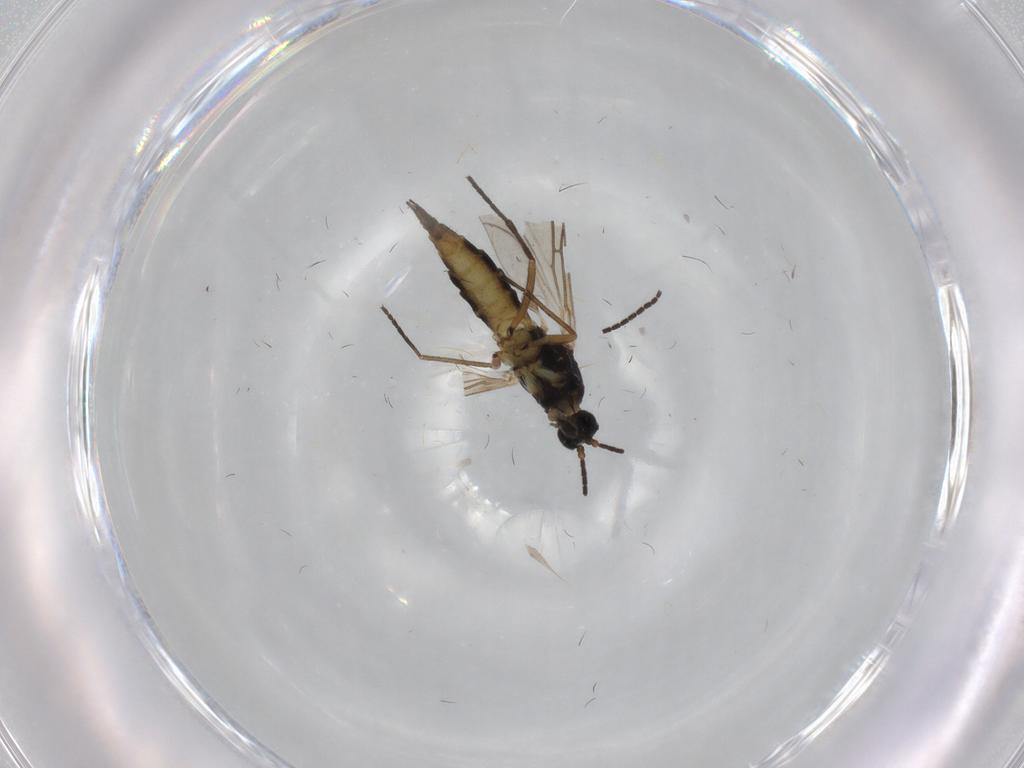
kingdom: Animalia
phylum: Arthropoda
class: Insecta
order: Diptera
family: Sciaridae
